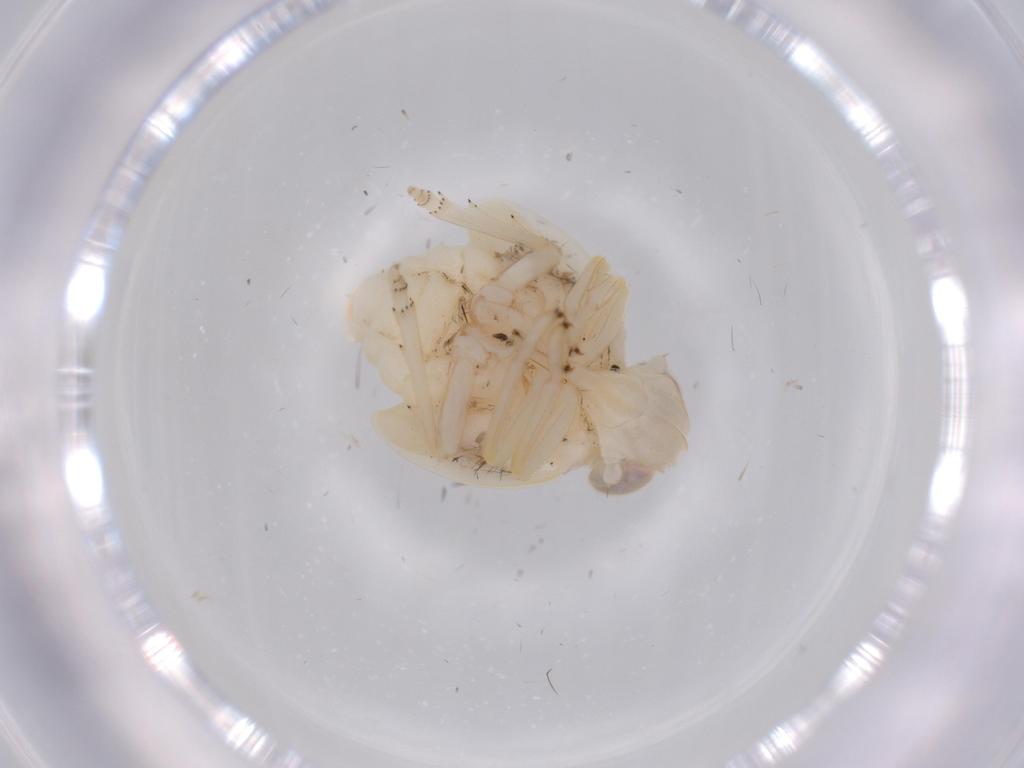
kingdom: Animalia
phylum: Arthropoda
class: Insecta
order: Hemiptera
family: Nogodinidae
